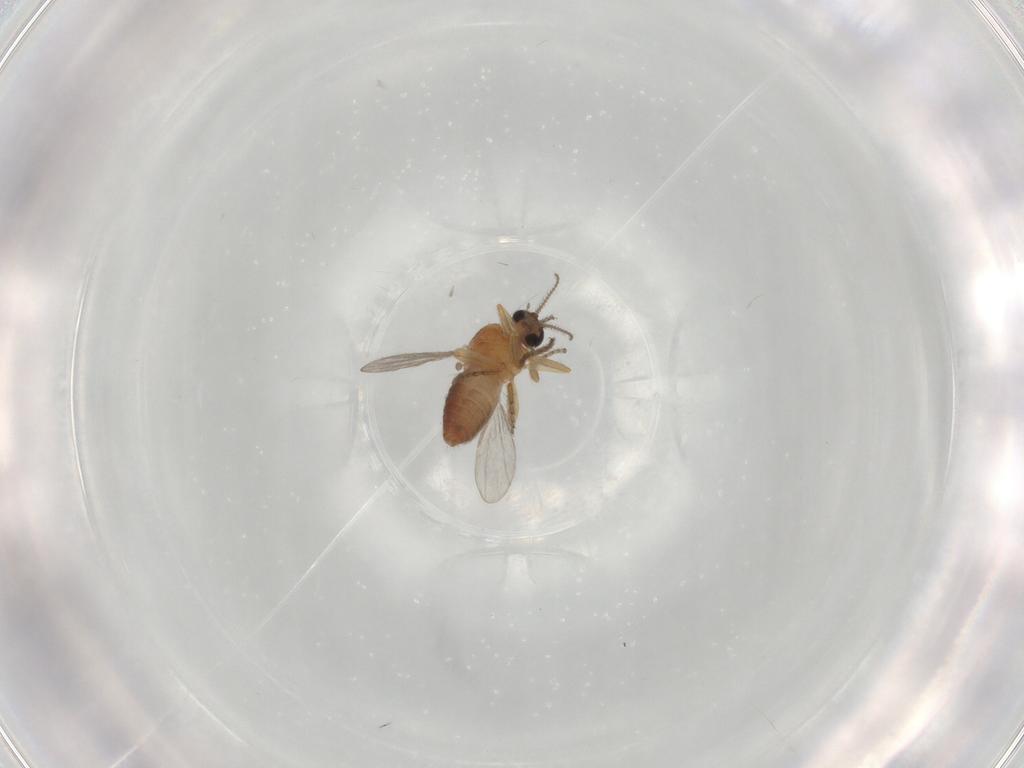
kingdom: Animalia
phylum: Arthropoda
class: Insecta
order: Diptera
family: Ceratopogonidae
